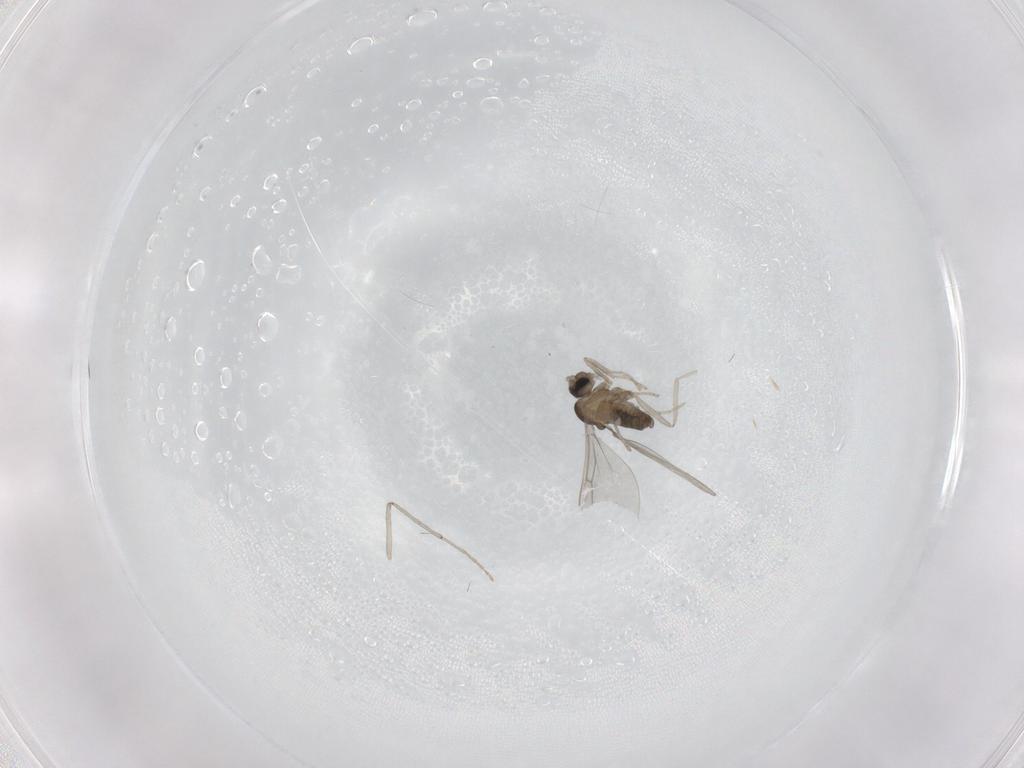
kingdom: Animalia
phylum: Arthropoda
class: Insecta
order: Diptera
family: Cecidomyiidae
